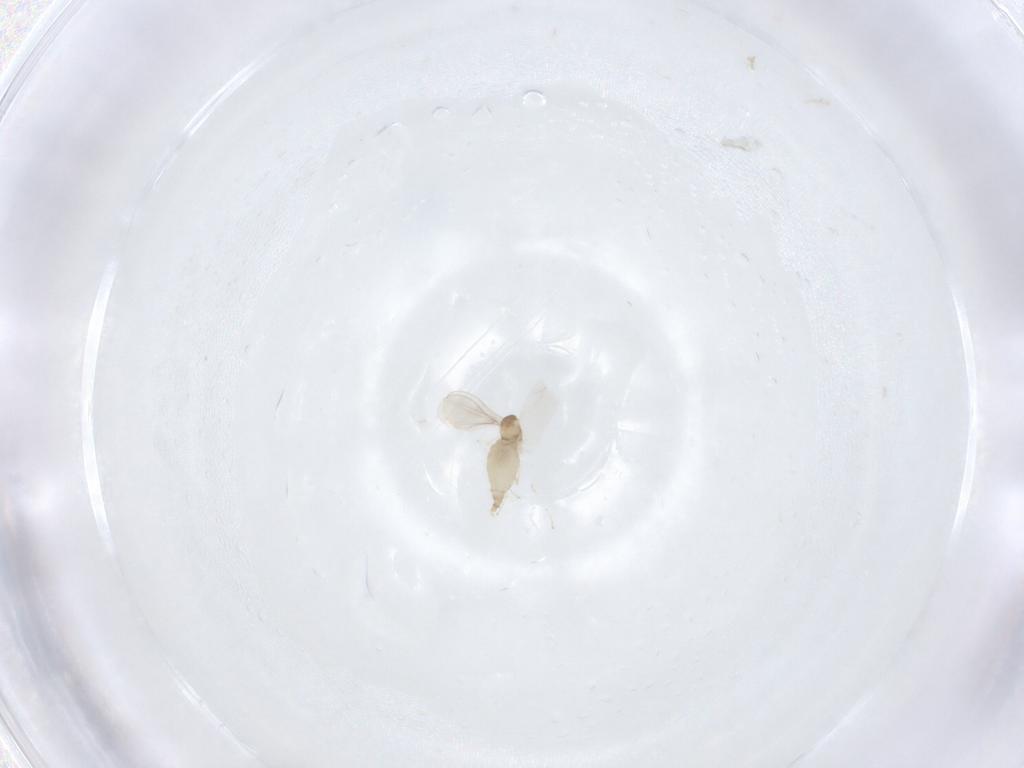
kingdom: Animalia
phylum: Arthropoda
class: Insecta
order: Diptera
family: Cecidomyiidae
